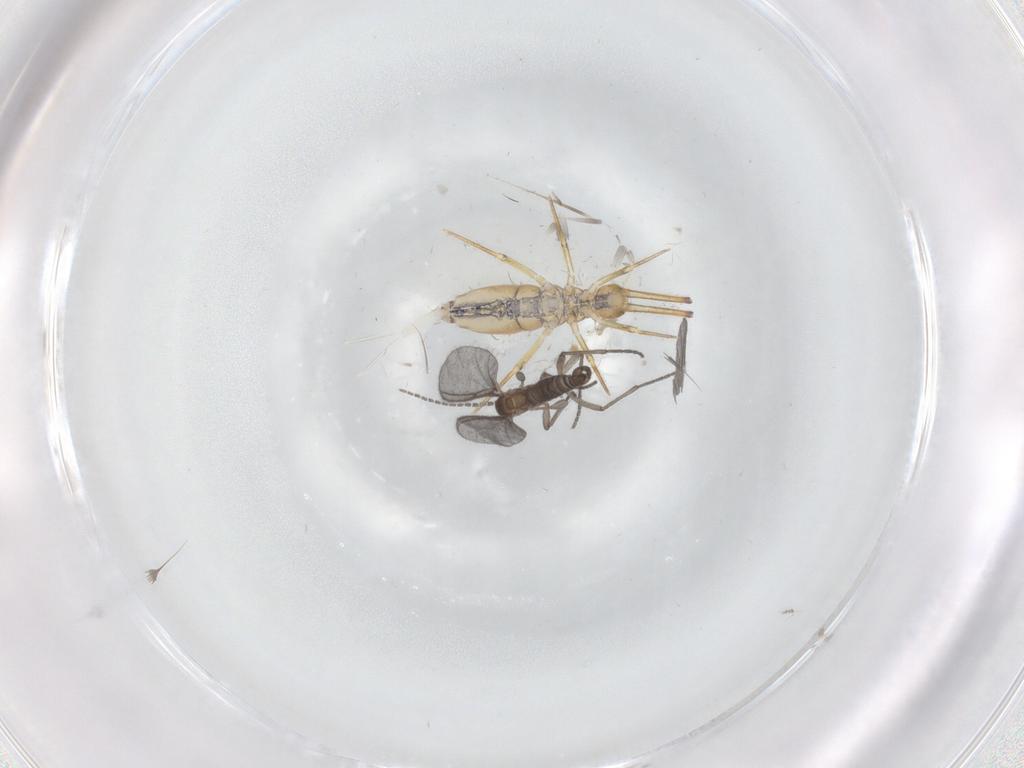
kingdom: Animalia
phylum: Arthropoda
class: Insecta
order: Diptera
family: Sciaridae
